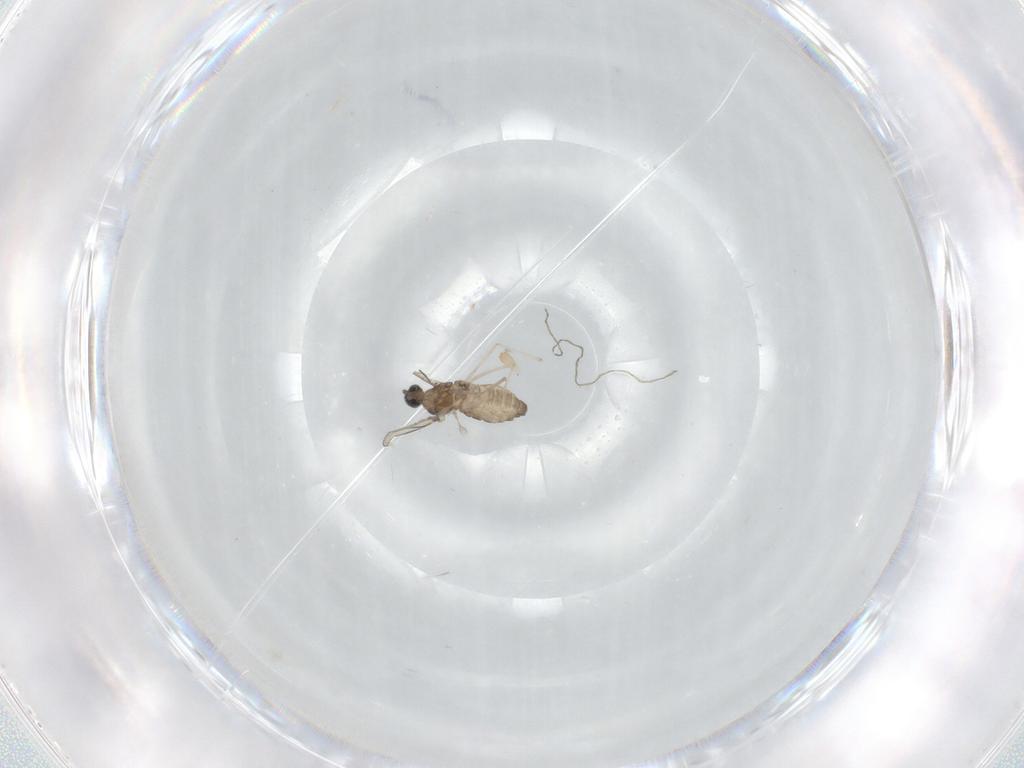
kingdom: Animalia
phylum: Arthropoda
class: Insecta
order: Diptera
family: Cecidomyiidae
